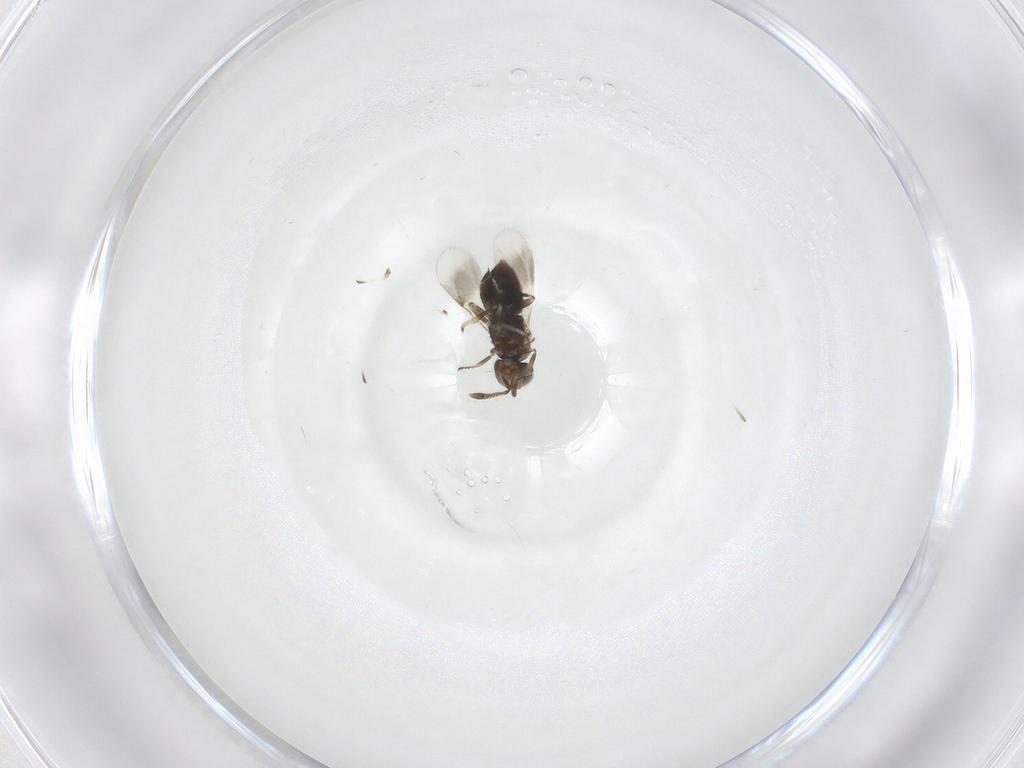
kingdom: Animalia
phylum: Arthropoda
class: Insecta
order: Hymenoptera
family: Encyrtidae
